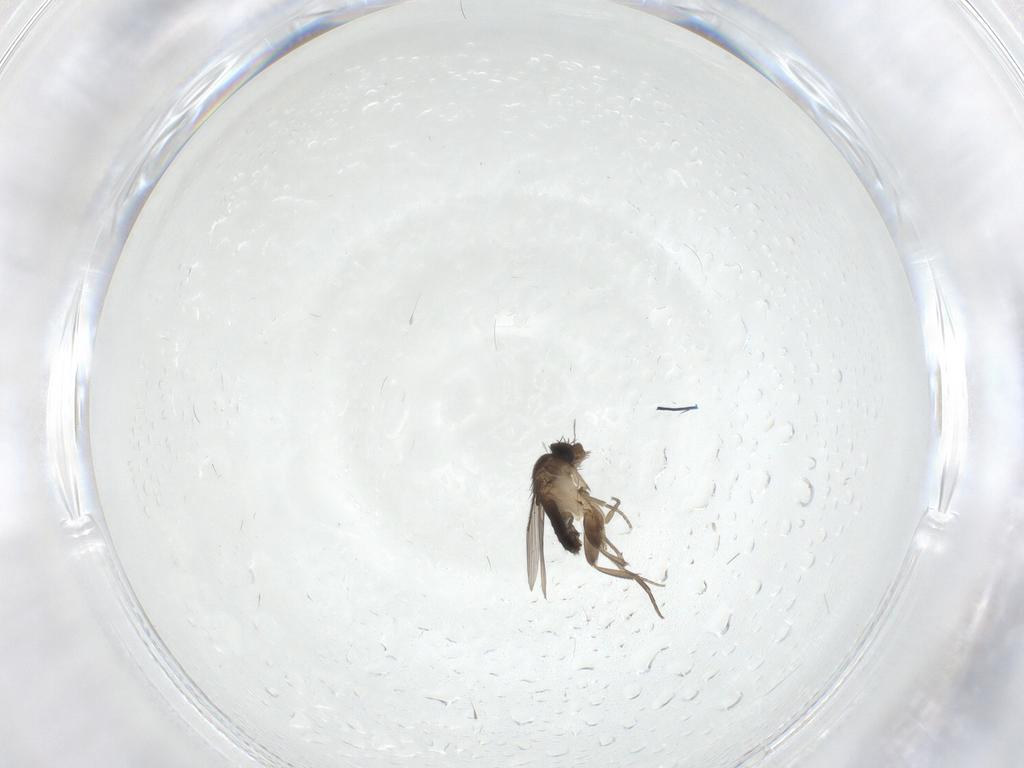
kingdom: Animalia
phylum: Arthropoda
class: Insecta
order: Diptera
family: Phoridae
